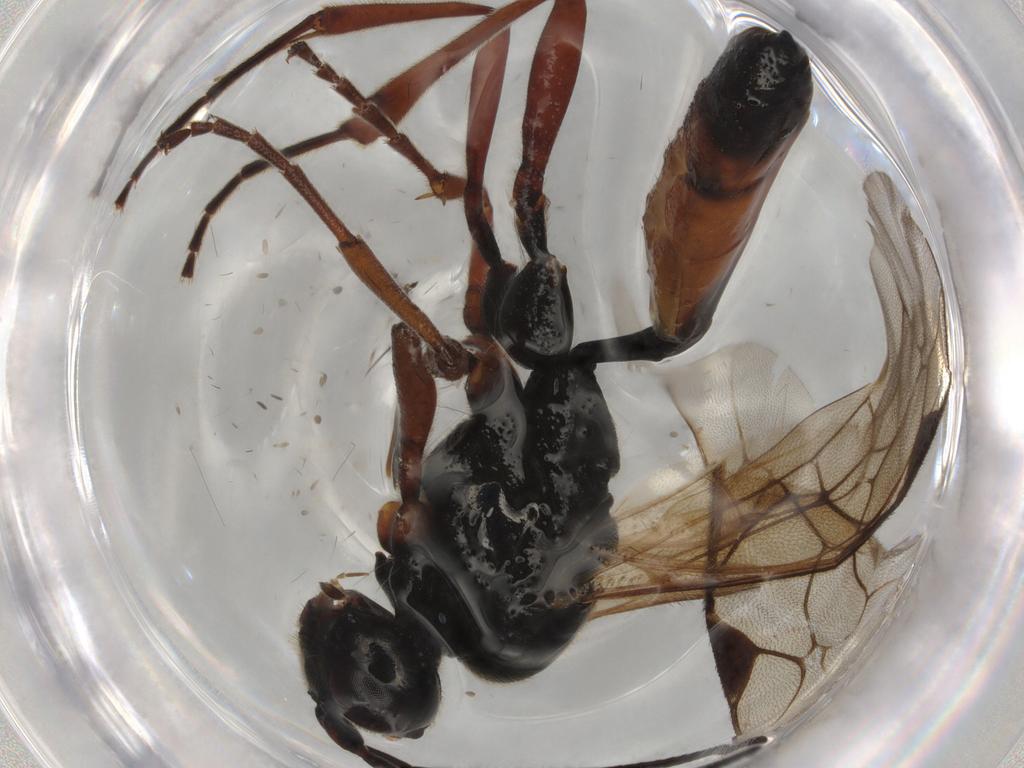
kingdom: Animalia
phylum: Arthropoda
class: Insecta
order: Hymenoptera
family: Ichneumonidae
